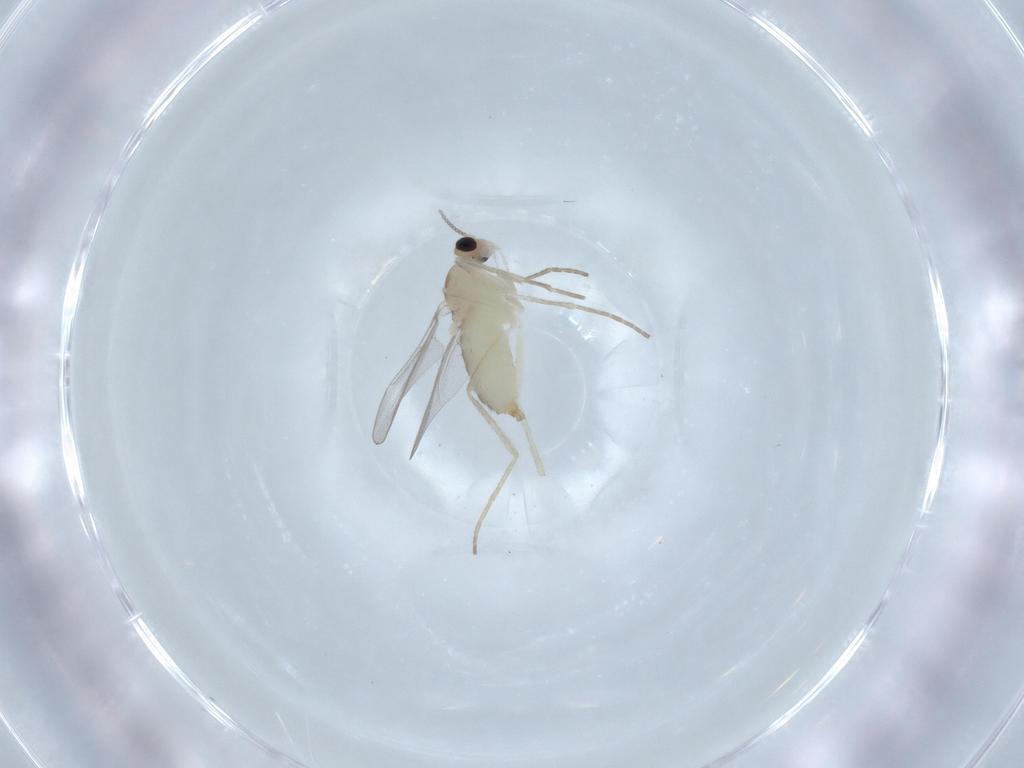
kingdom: Animalia
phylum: Arthropoda
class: Insecta
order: Diptera
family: Cecidomyiidae
